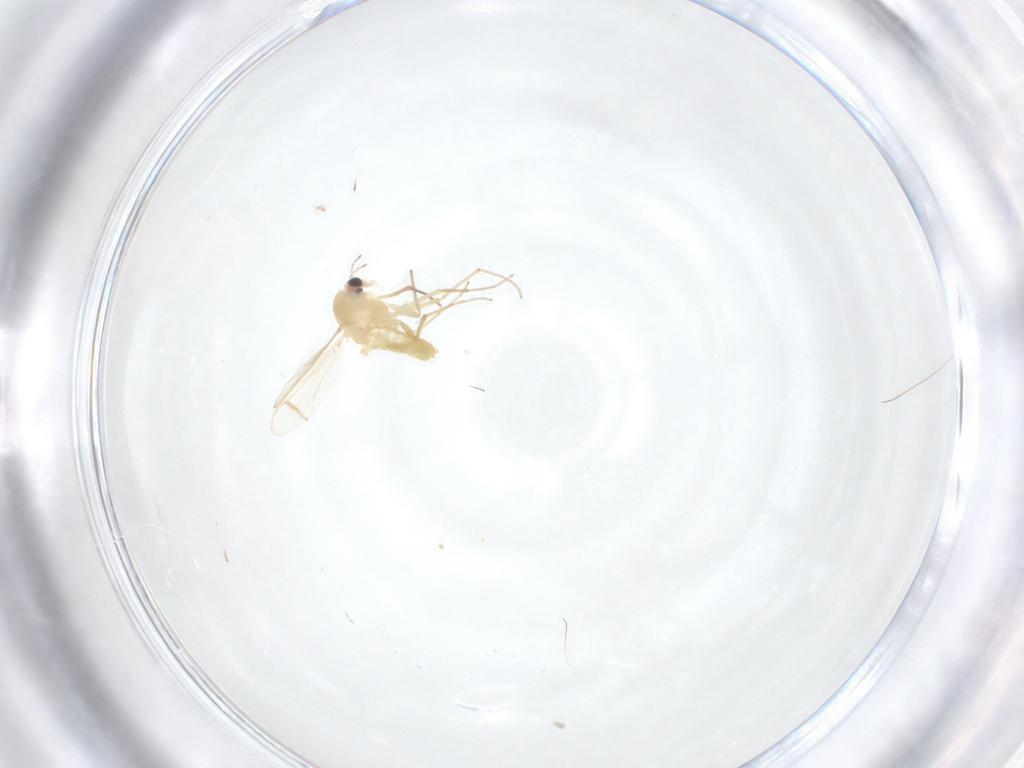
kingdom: Animalia
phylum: Arthropoda
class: Insecta
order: Diptera
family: Chironomidae
